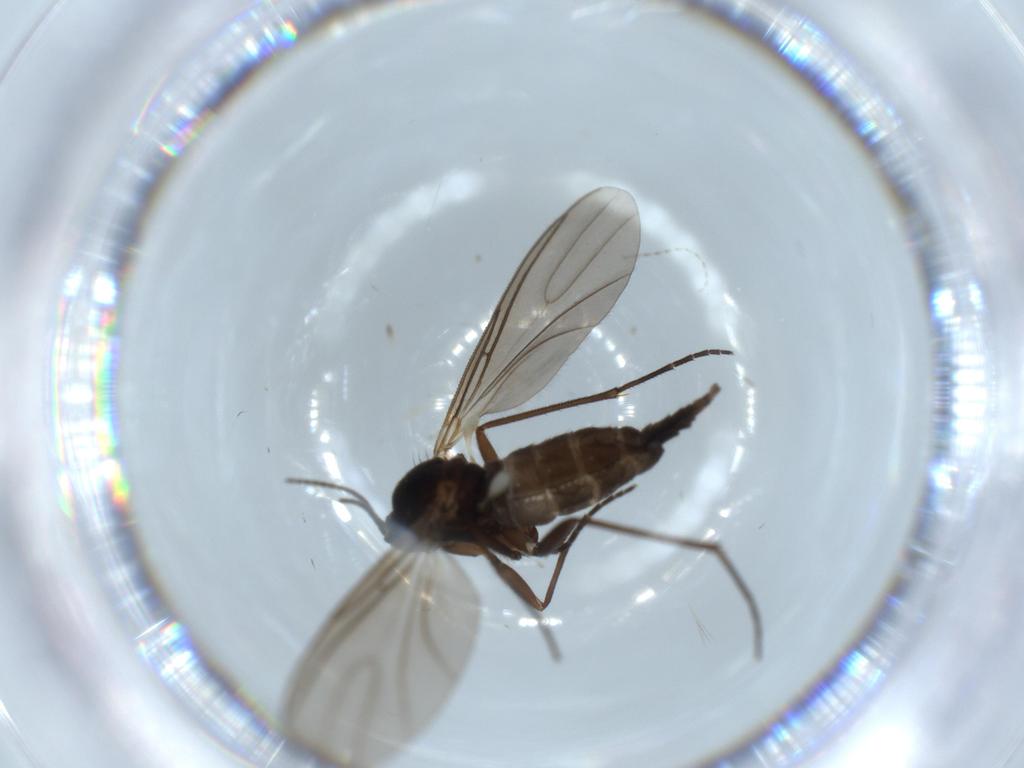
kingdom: Animalia
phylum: Arthropoda
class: Insecta
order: Diptera
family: Sciaridae
